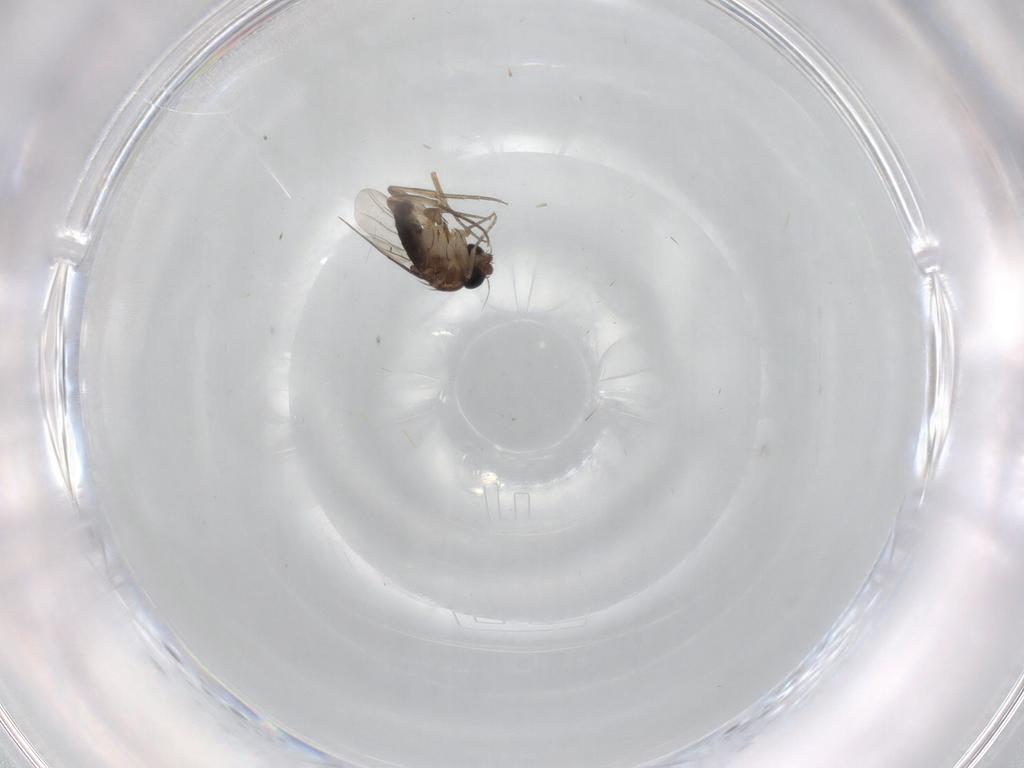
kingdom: Animalia
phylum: Arthropoda
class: Insecta
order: Diptera
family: Phoridae
